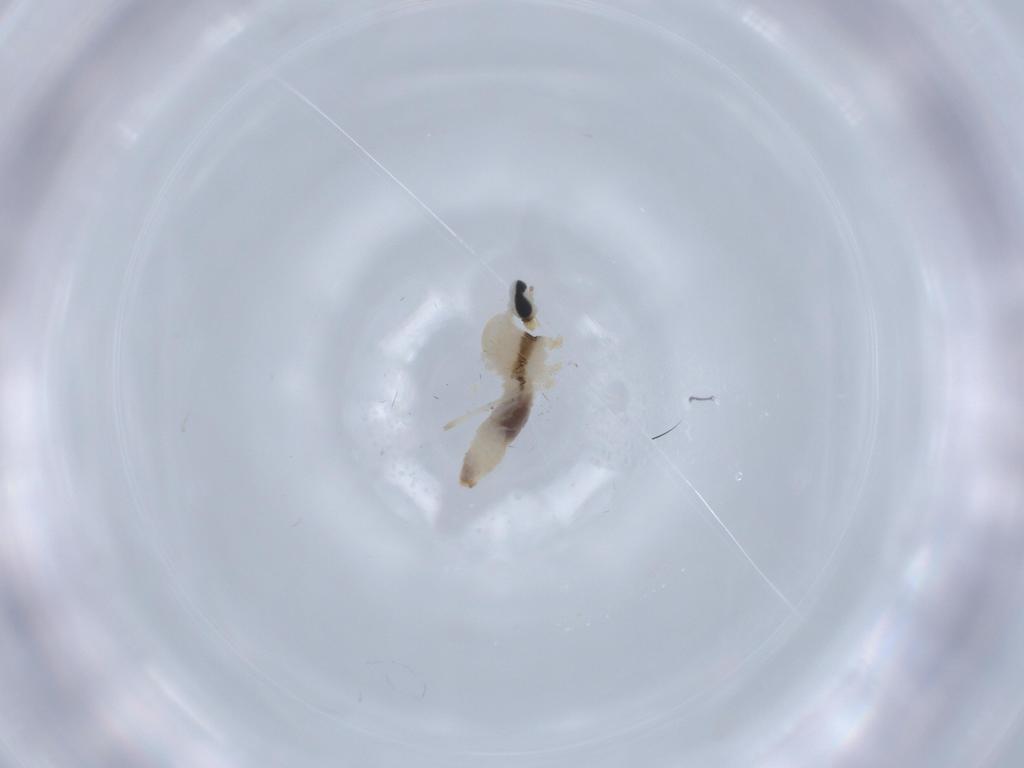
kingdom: Animalia
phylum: Arthropoda
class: Insecta
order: Diptera
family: Cecidomyiidae
